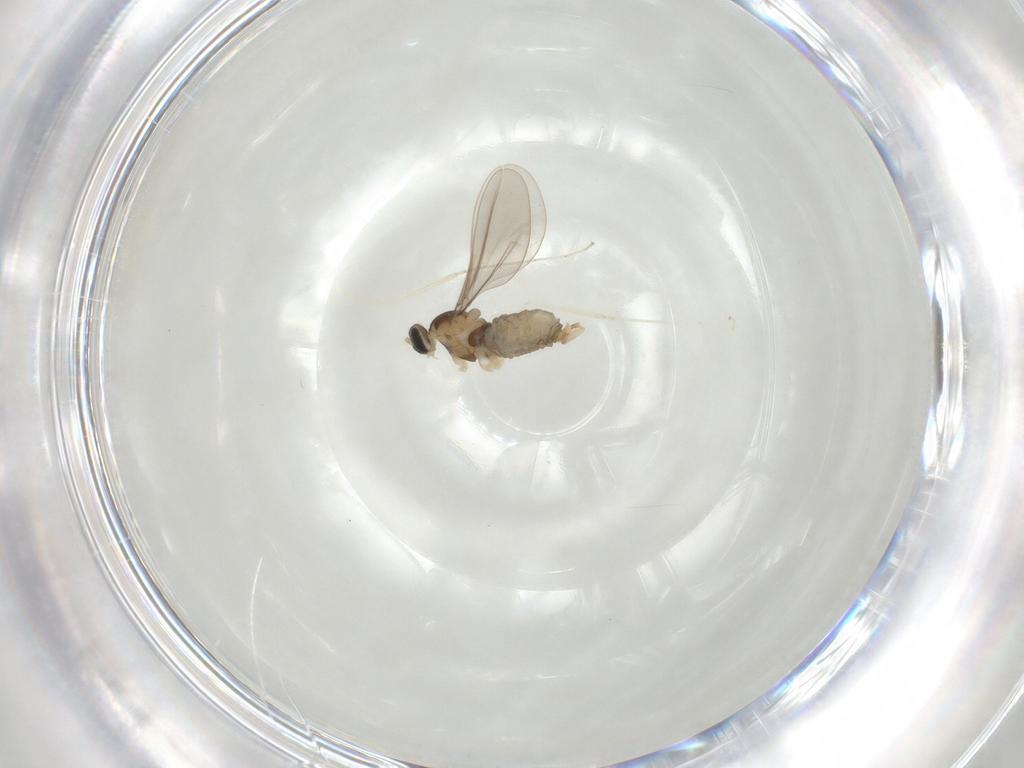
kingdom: Animalia
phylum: Arthropoda
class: Insecta
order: Diptera
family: Cecidomyiidae
